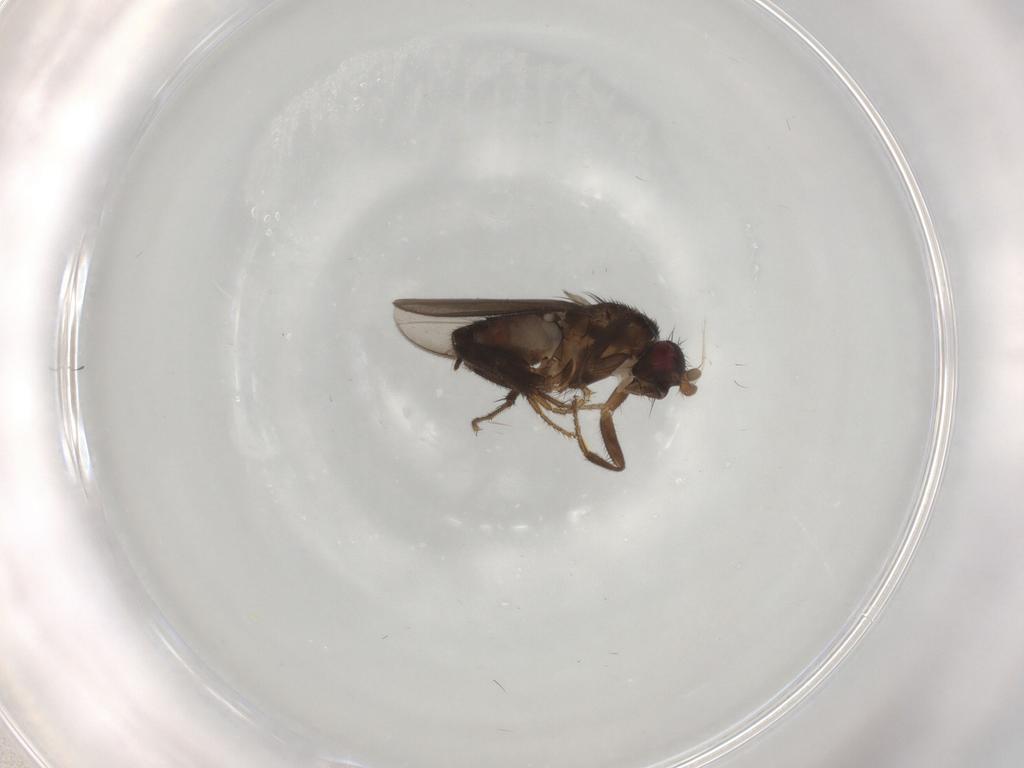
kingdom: Animalia
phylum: Arthropoda
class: Insecta
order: Diptera
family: Sphaeroceridae
